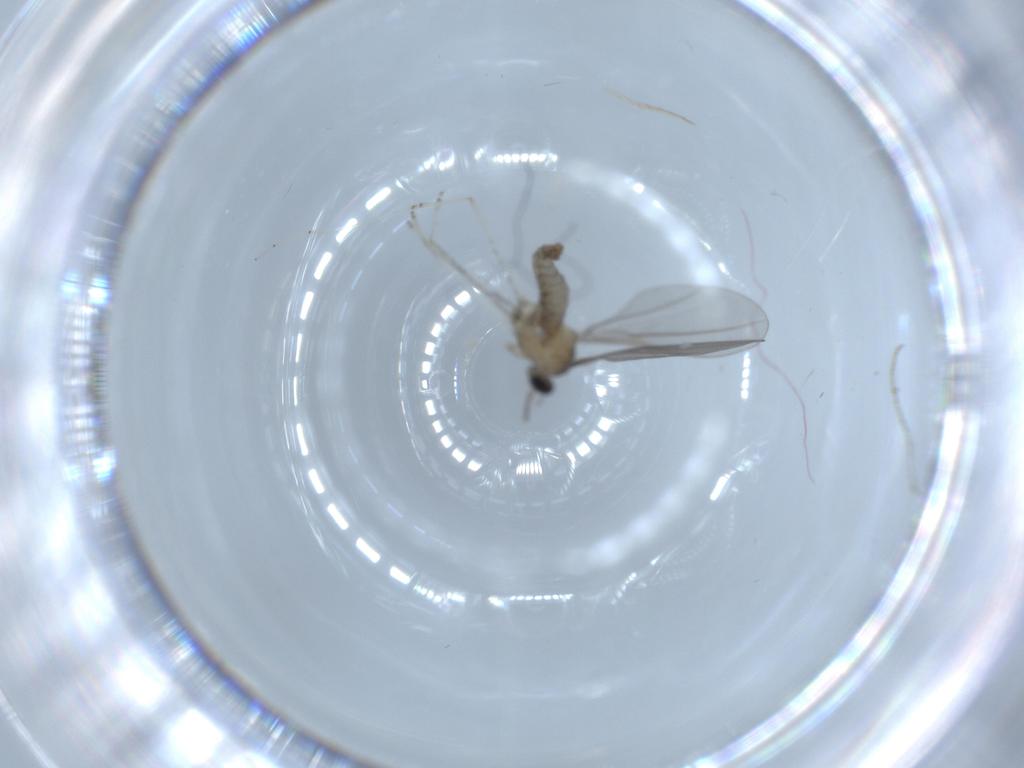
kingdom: Animalia
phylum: Arthropoda
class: Insecta
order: Diptera
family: Cecidomyiidae
